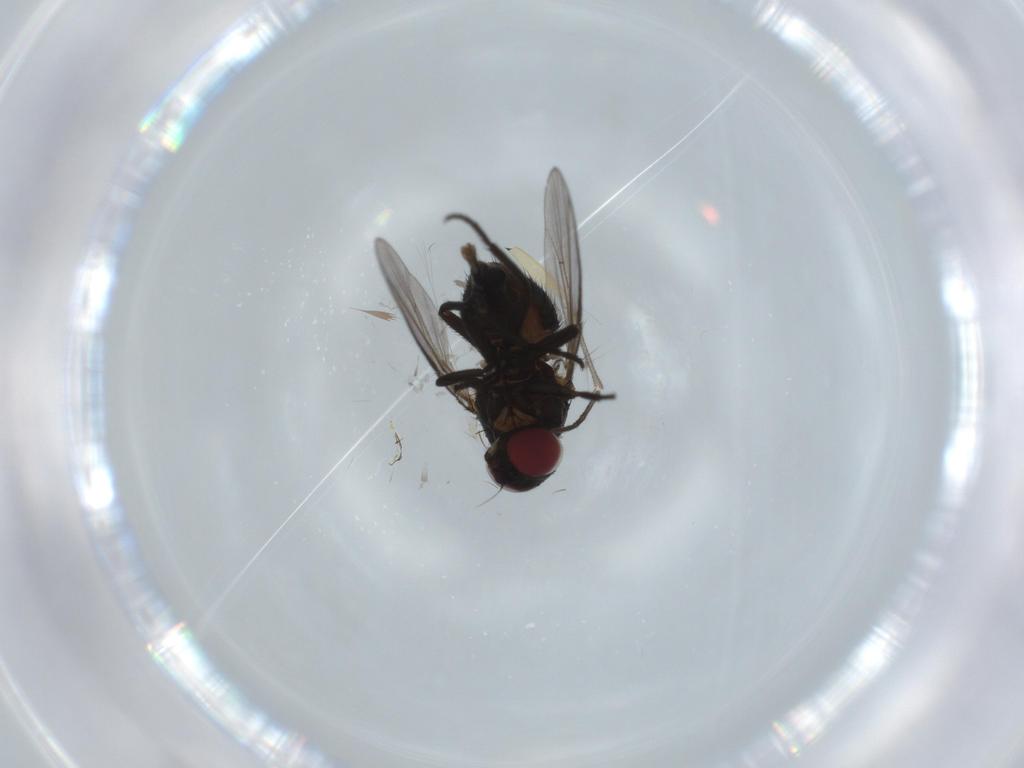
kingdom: Animalia
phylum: Arthropoda
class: Insecta
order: Diptera
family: Agromyzidae
